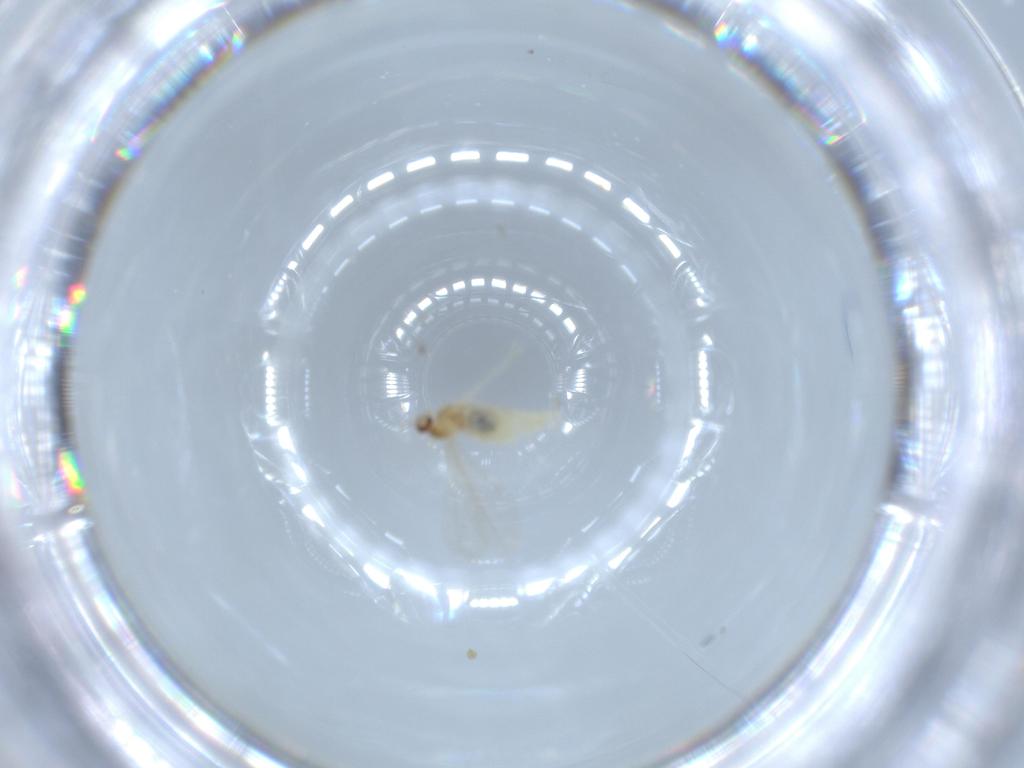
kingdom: Animalia
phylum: Arthropoda
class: Insecta
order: Diptera
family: Cecidomyiidae
